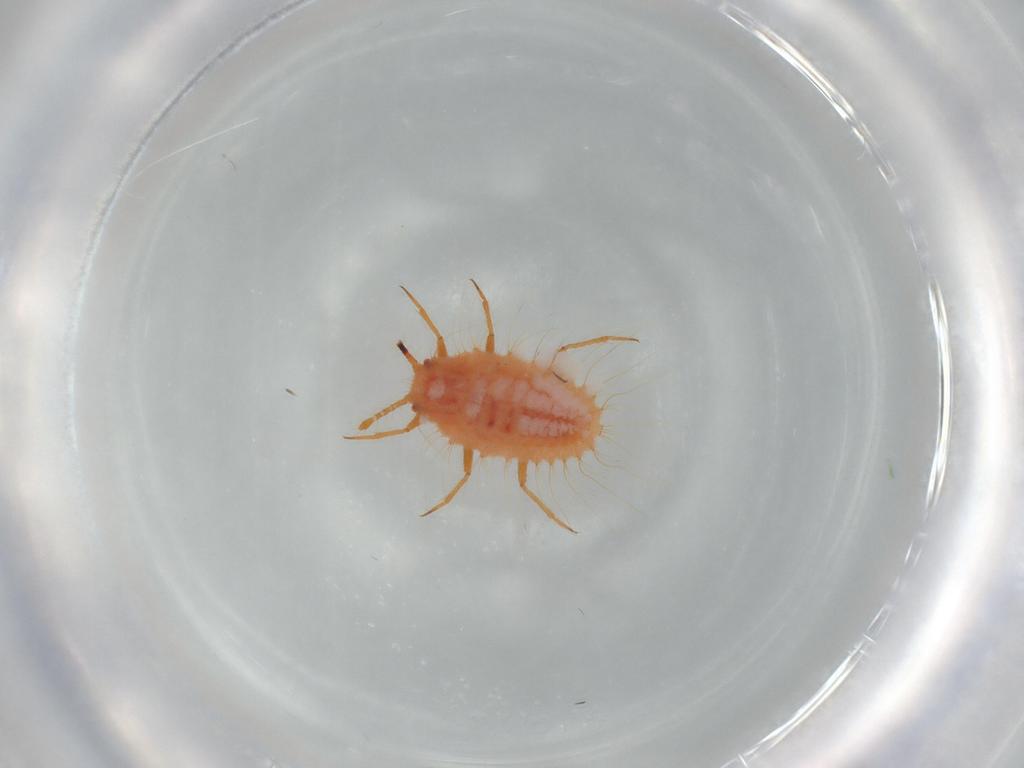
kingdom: Animalia
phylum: Arthropoda
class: Insecta
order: Hemiptera
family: Coccoidea_incertae_sedis
